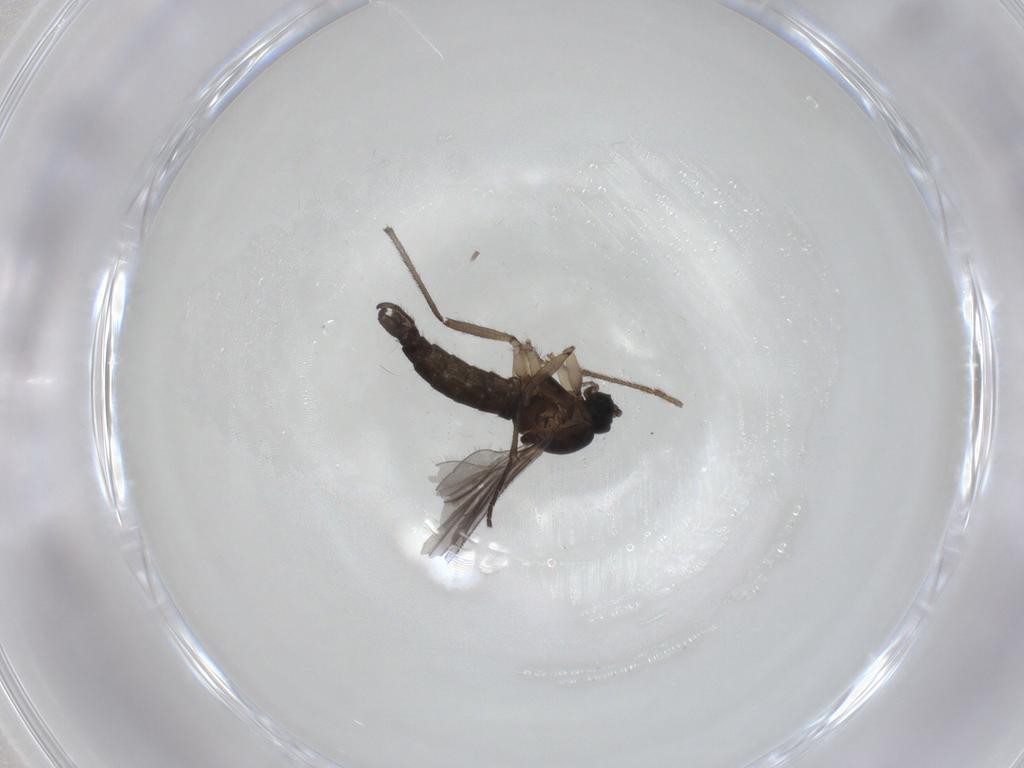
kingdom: Animalia
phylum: Arthropoda
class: Insecta
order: Diptera
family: Sciaridae
